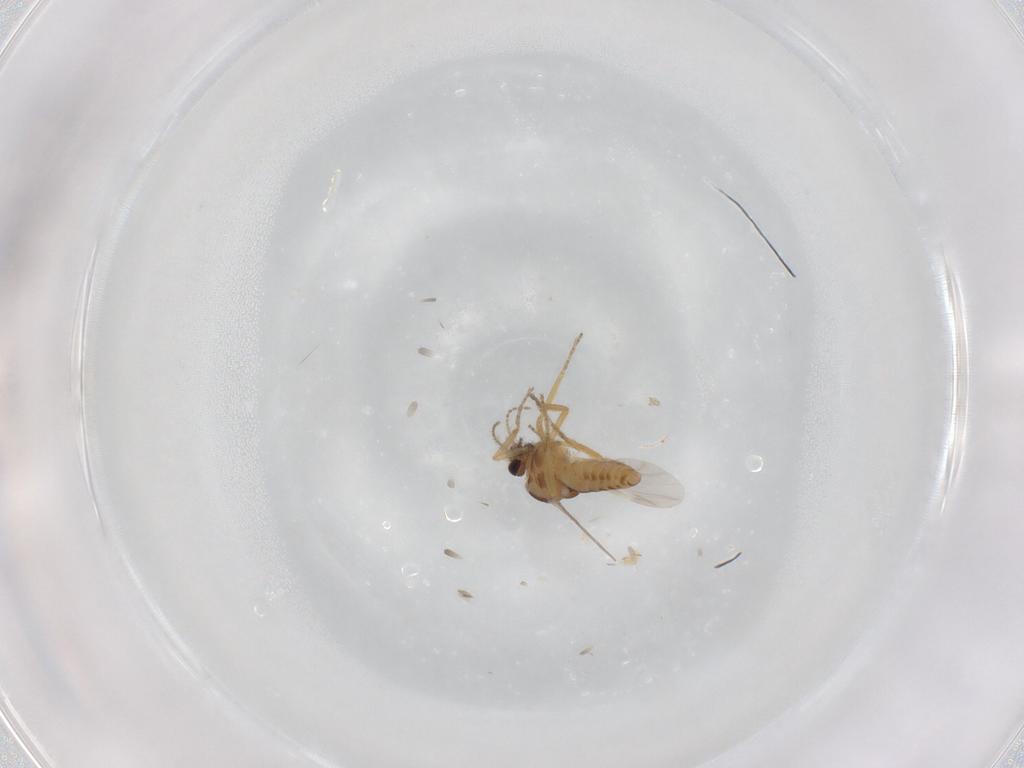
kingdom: Animalia
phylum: Arthropoda
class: Insecta
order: Diptera
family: Ceratopogonidae
